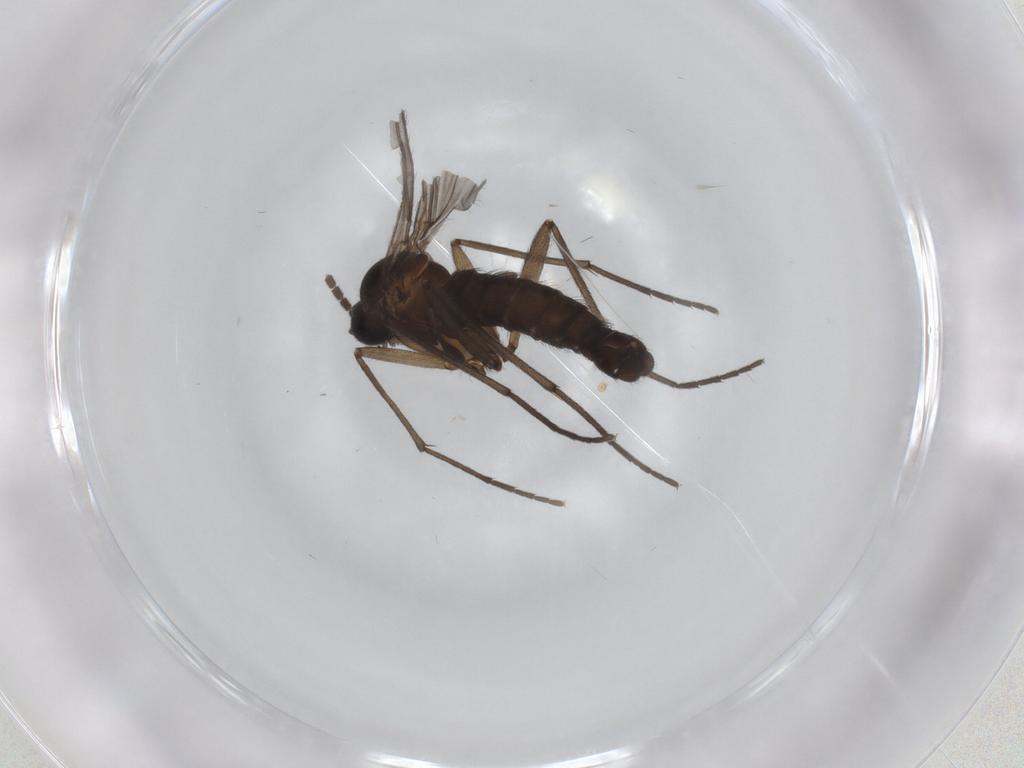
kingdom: Animalia
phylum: Arthropoda
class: Insecta
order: Diptera
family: Sciaridae
